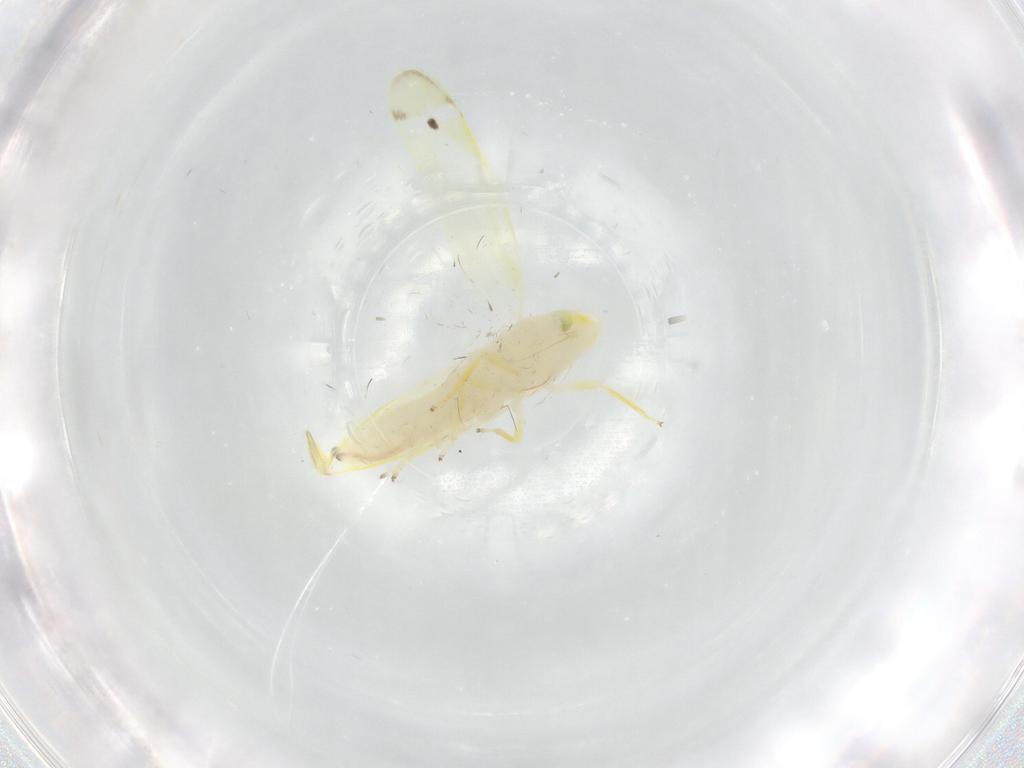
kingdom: Animalia
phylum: Arthropoda
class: Insecta
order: Hemiptera
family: Cicadellidae
